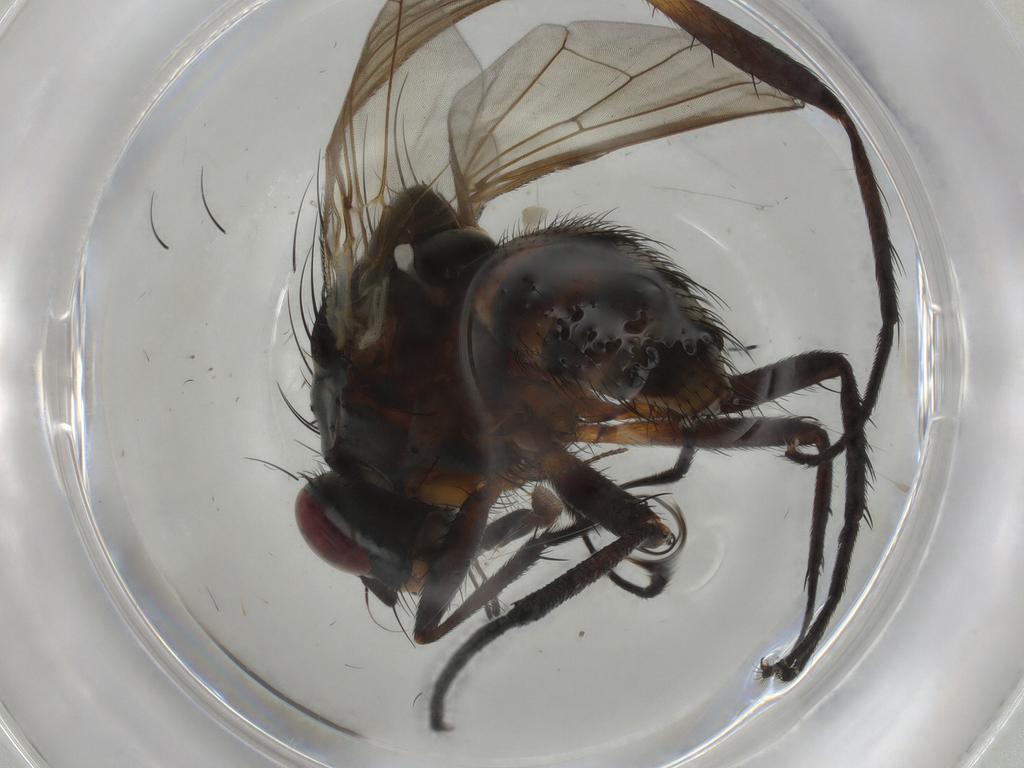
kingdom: Animalia
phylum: Arthropoda
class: Insecta
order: Diptera
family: Anthomyiidae
